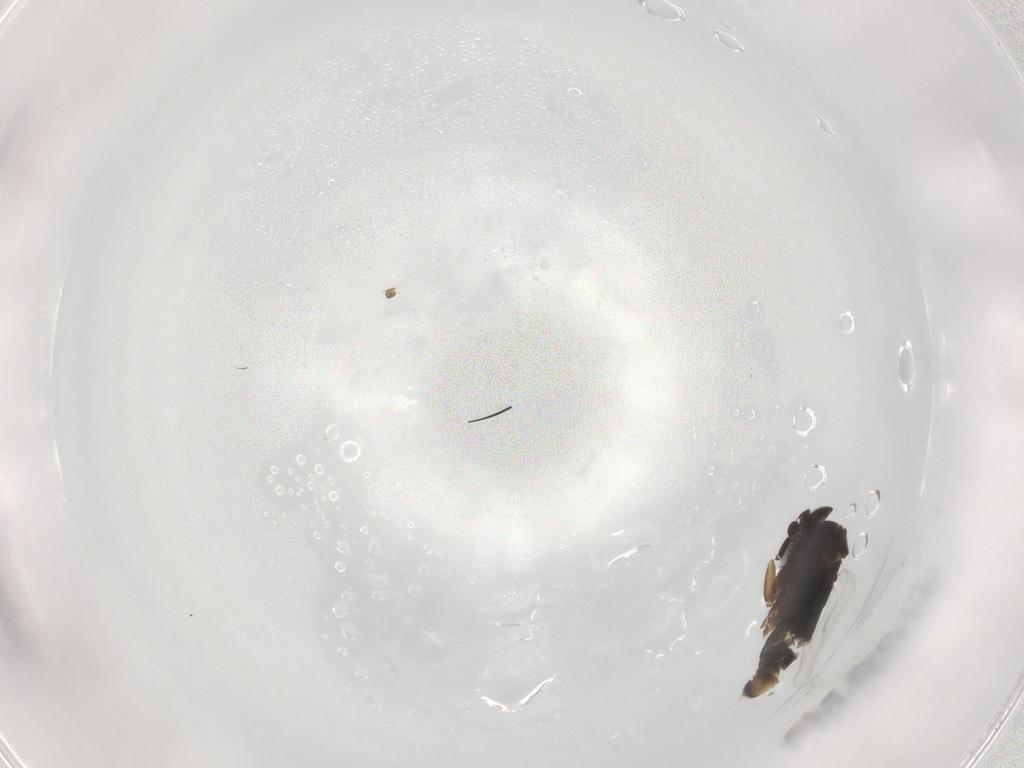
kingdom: Animalia
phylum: Arthropoda
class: Insecta
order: Diptera
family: Phoridae
